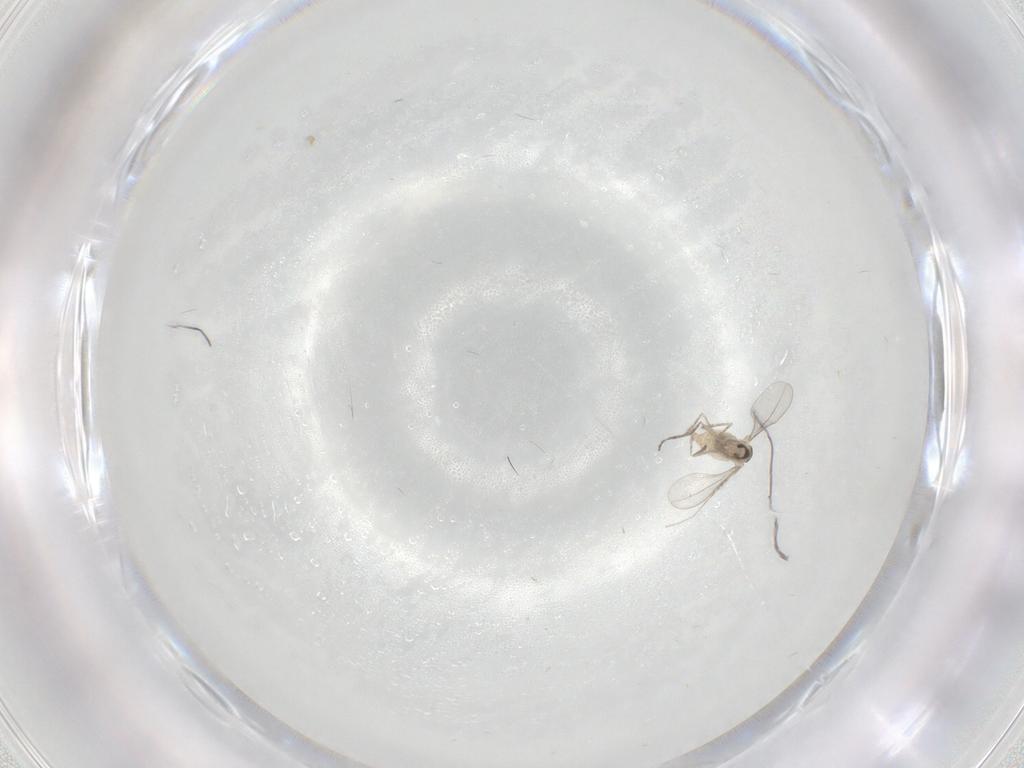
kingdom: Animalia
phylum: Arthropoda
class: Insecta
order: Diptera
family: Cecidomyiidae
